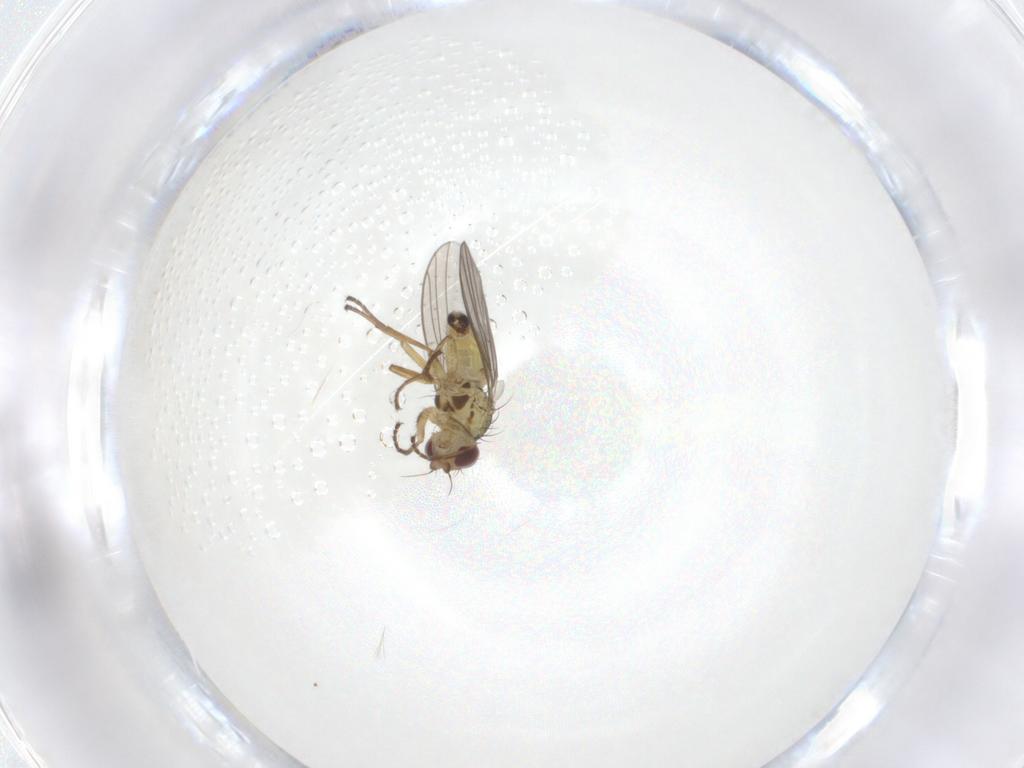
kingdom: Animalia
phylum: Arthropoda
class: Insecta
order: Diptera
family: Agromyzidae
